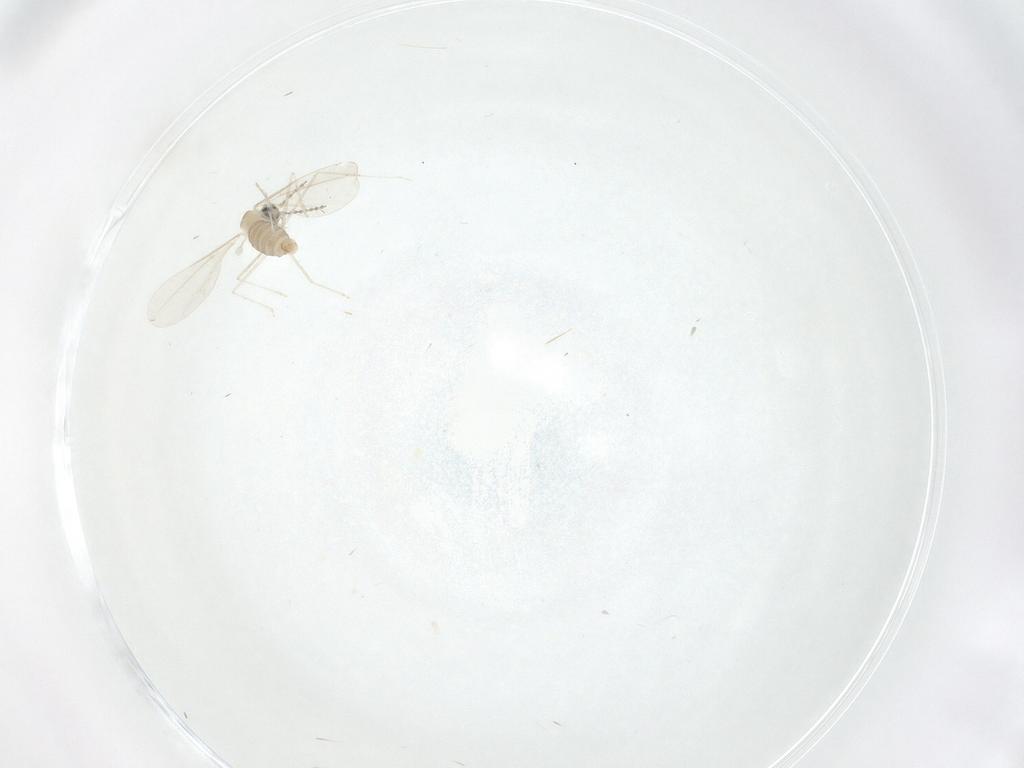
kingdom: Animalia
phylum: Arthropoda
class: Insecta
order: Diptera
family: Ceratopogonidae
